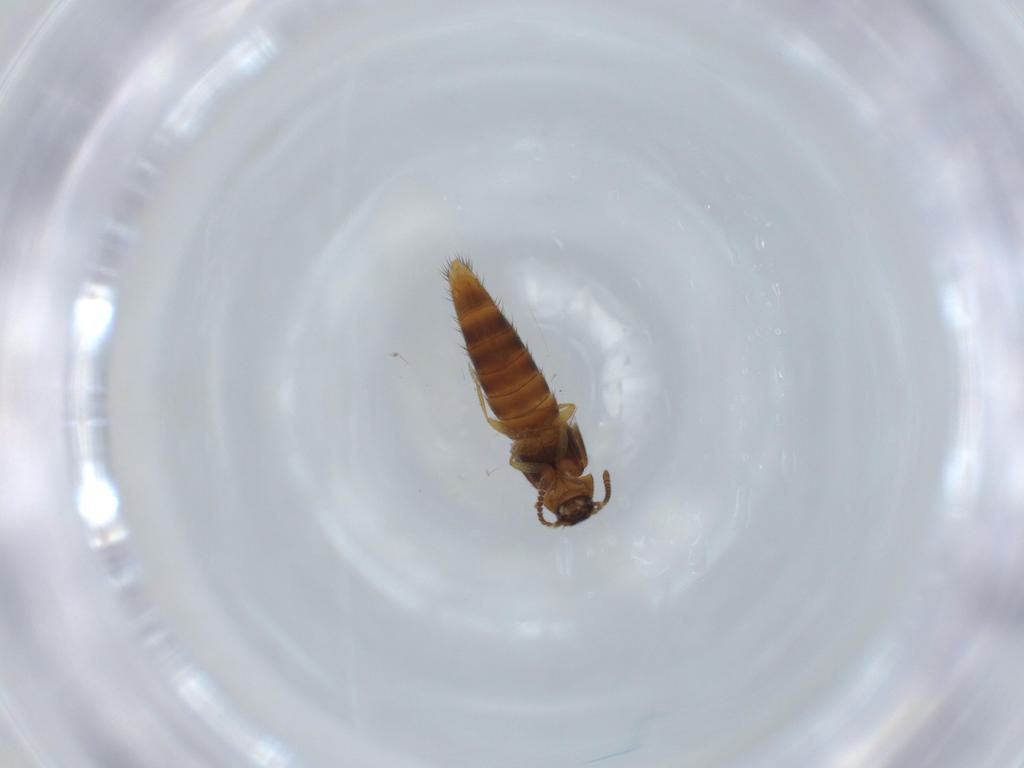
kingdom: Animalia
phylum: Arthropoda
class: Insecta
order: Coleoptera
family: Staphylinidae
